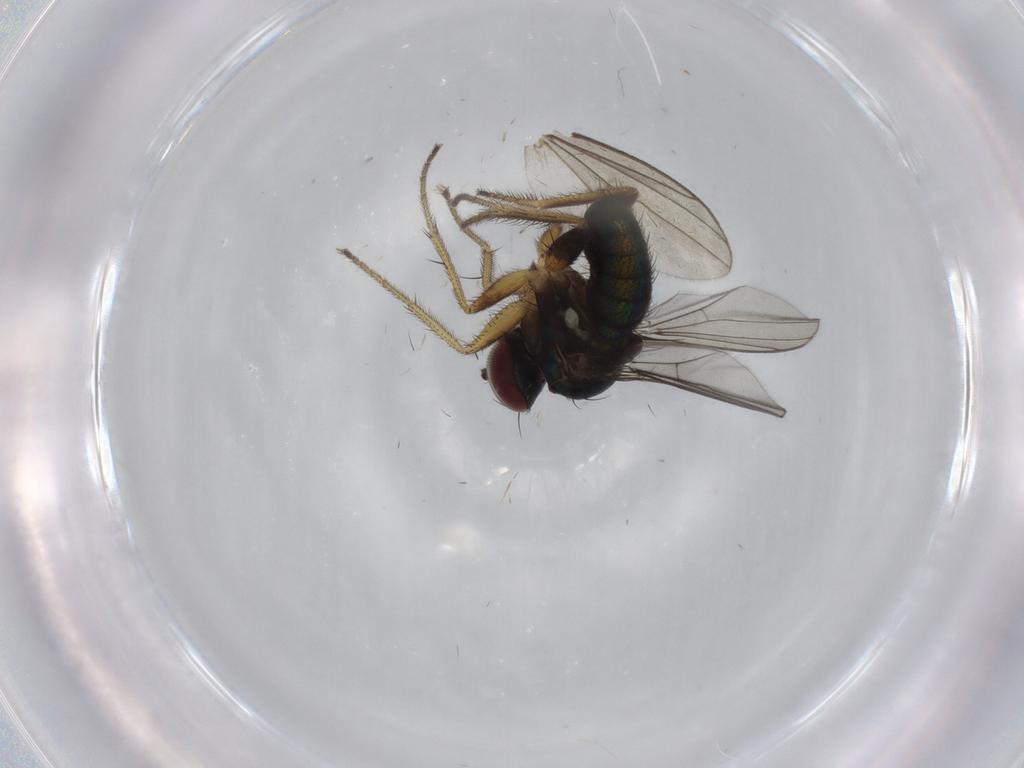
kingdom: Animalia
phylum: Arthropoda
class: Insecta
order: Diptera
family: Dolichopodidae
